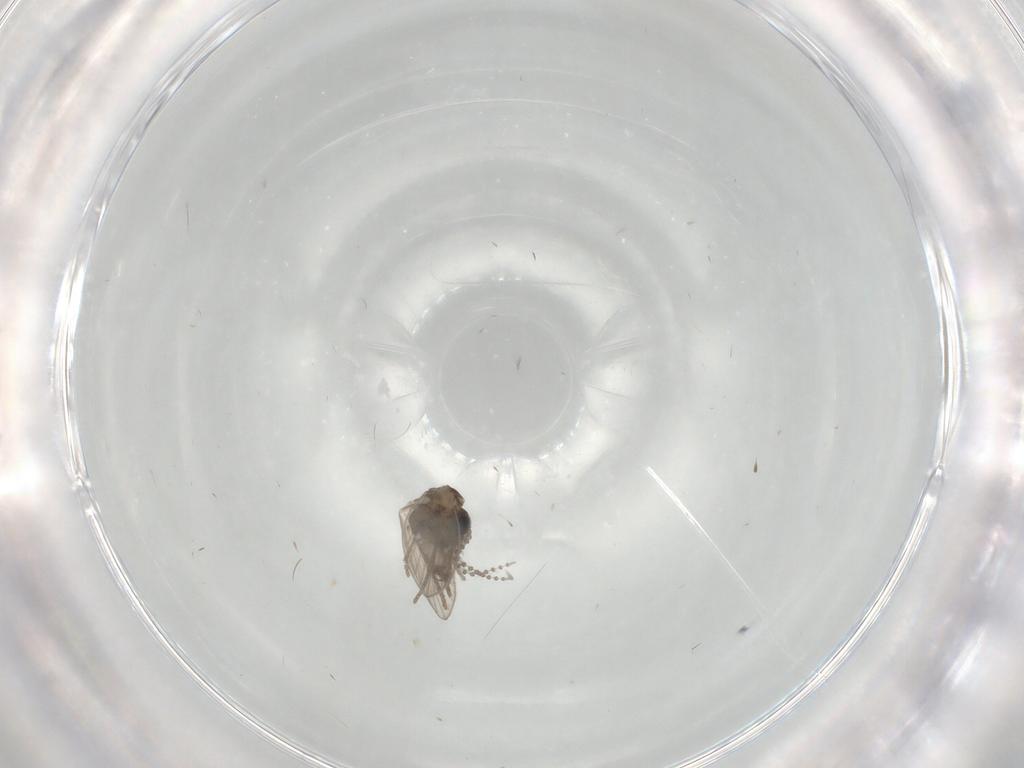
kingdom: Animalia
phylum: Arthropoda
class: Insecta
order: Diptera
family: Psychodidae
